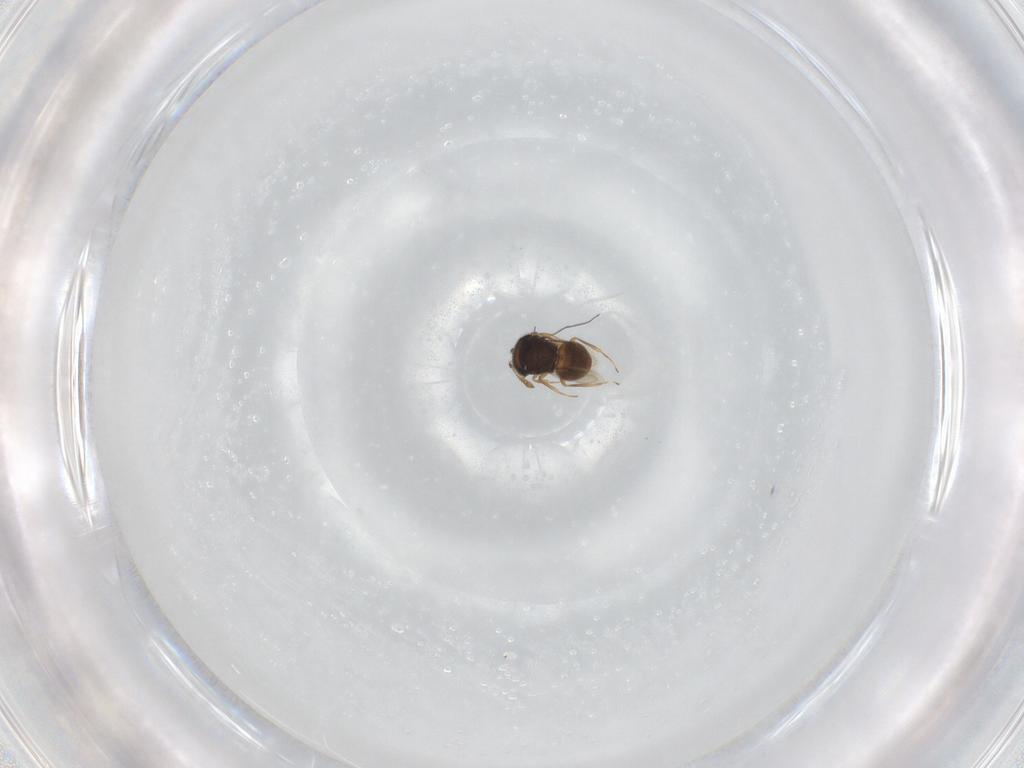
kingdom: Animalia
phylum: Arthropoda
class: Insecta
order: Hymenoptera
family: Scelionidae
